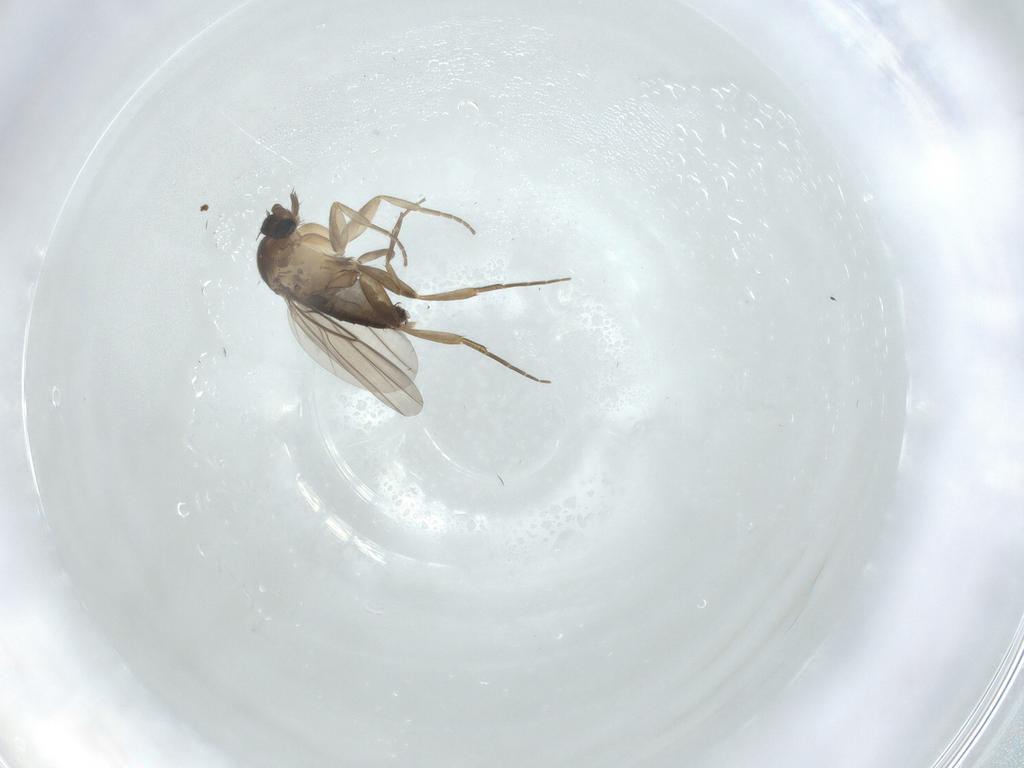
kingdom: Animalia
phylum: Arthropoda
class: Insecta
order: Diptera
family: Phoridae
